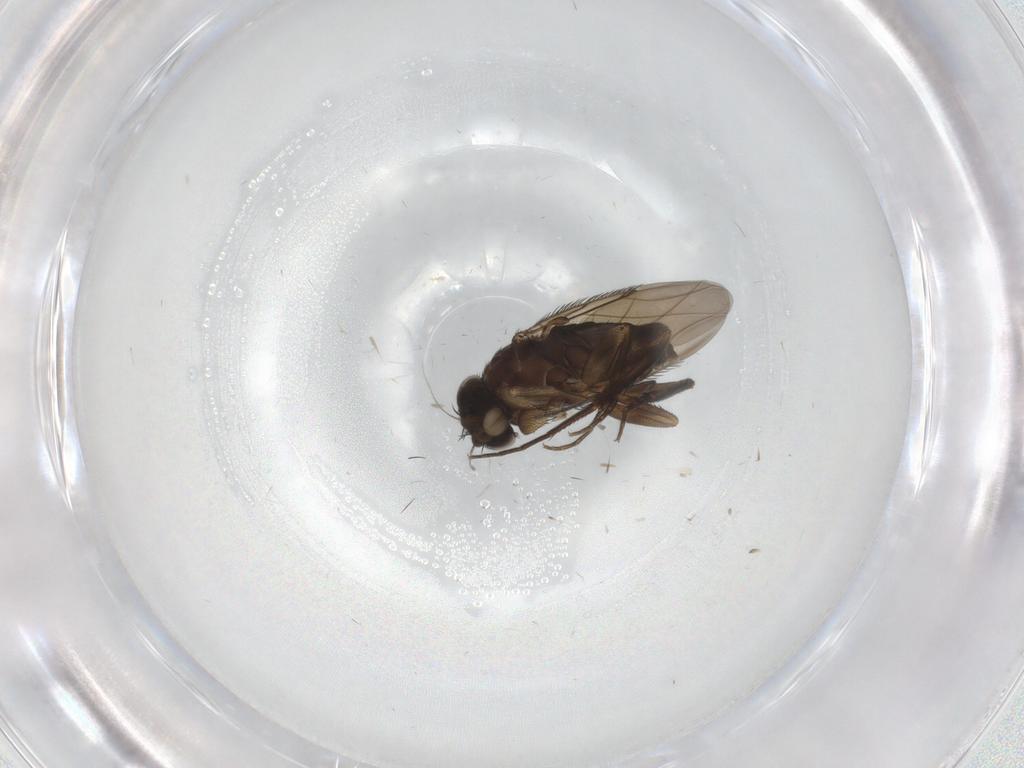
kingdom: Animalia
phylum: Arthropoda
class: Insecta
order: Diptera
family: Phoridae
